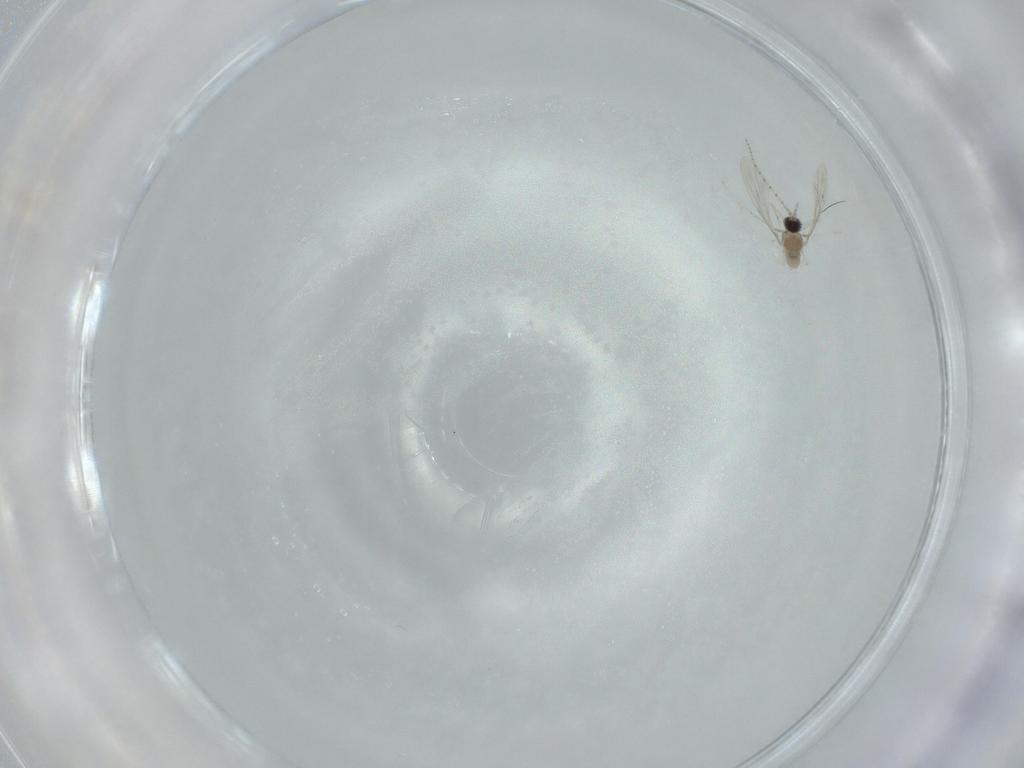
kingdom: Animalia
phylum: Arthropoda
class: Insecta
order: Diptera
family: Cecidomyiidae
